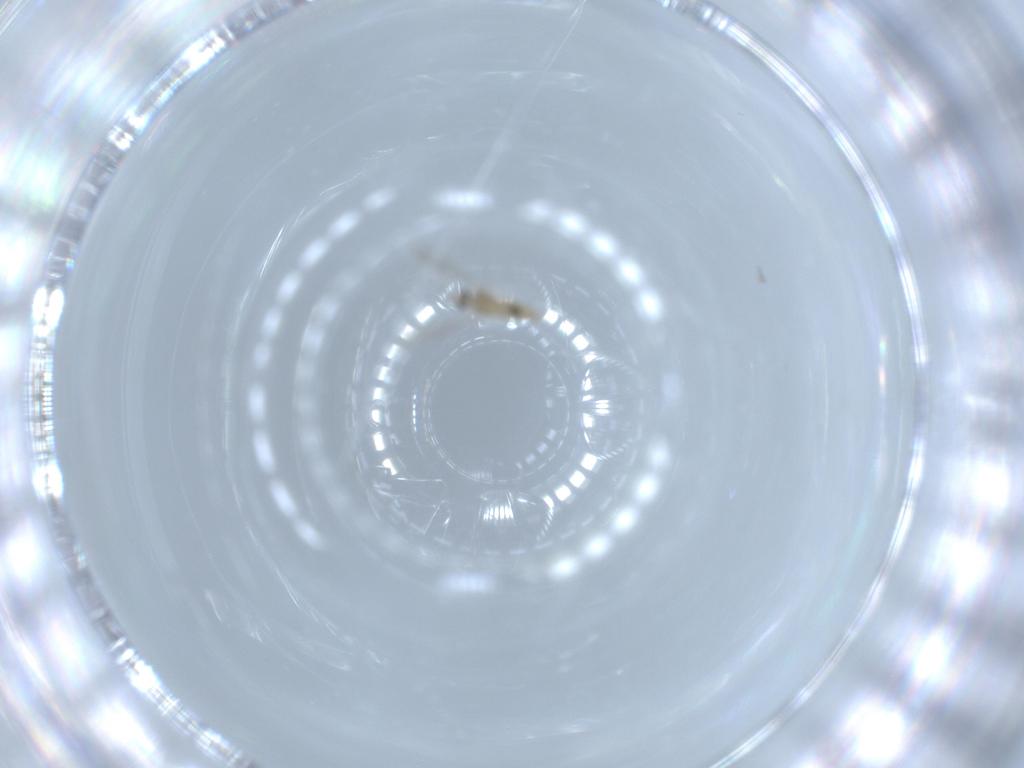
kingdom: Animalia
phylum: Arthropoda
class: Insecta
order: Diptera
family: Cecidomyiidae
